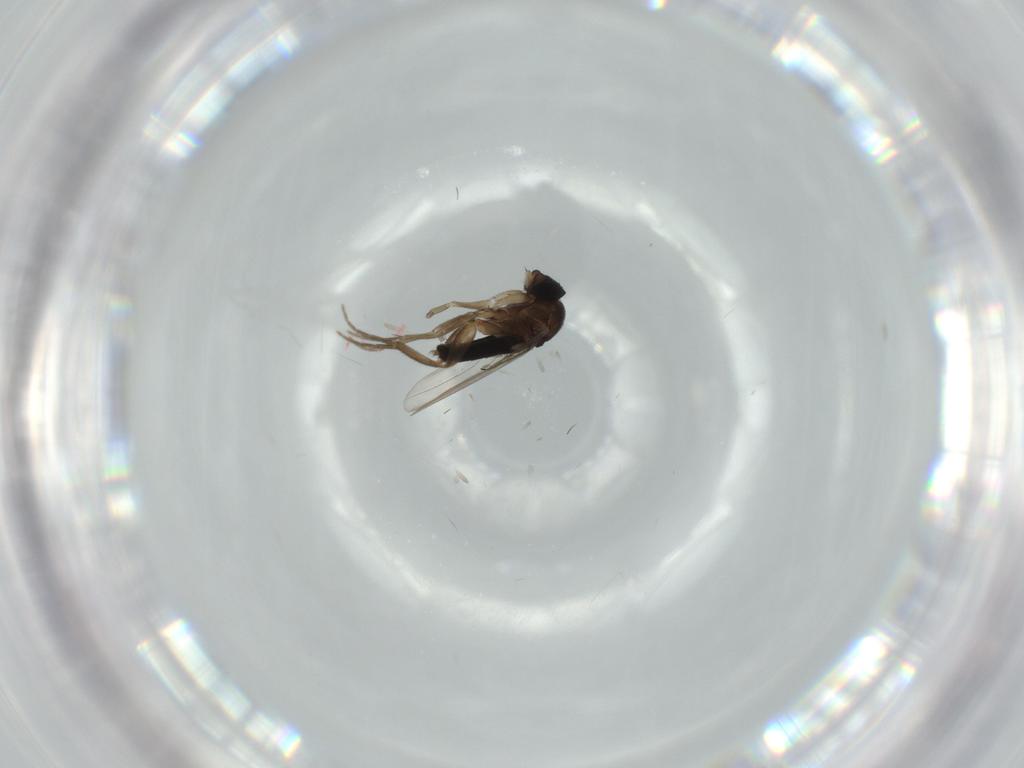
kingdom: Animalia
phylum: Arthropoda
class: Insecta
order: Diptera
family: Phoridae
